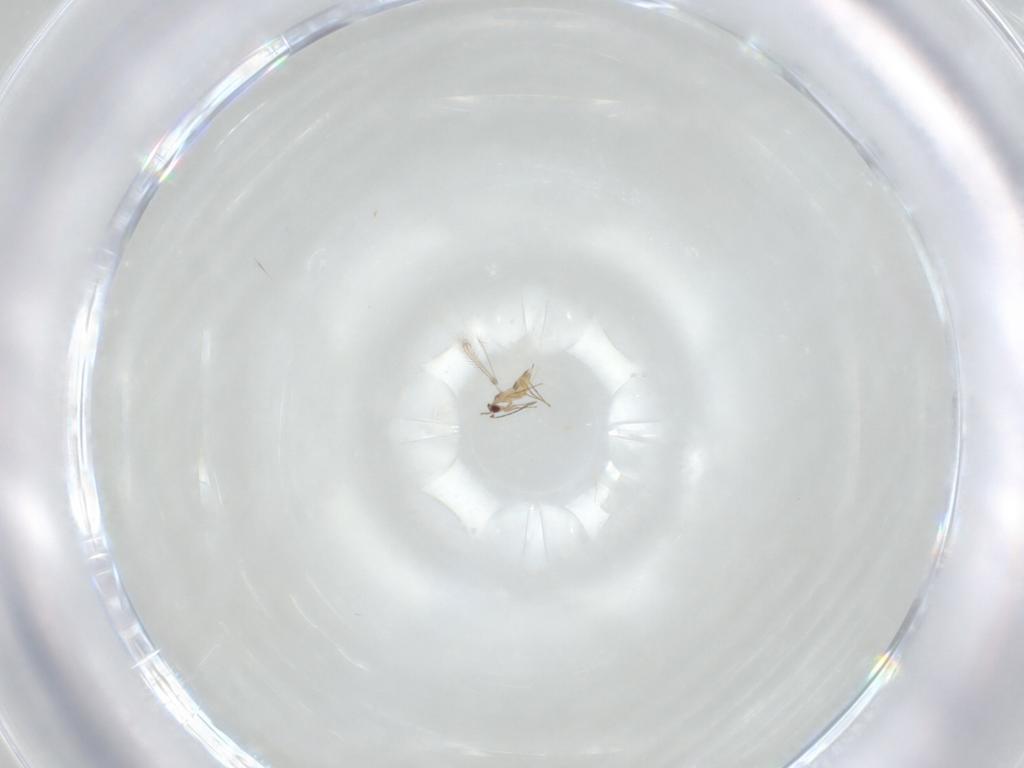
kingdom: Animalia
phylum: Arthropoda
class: Insecta
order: Hymenoptera
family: Mymaridae
